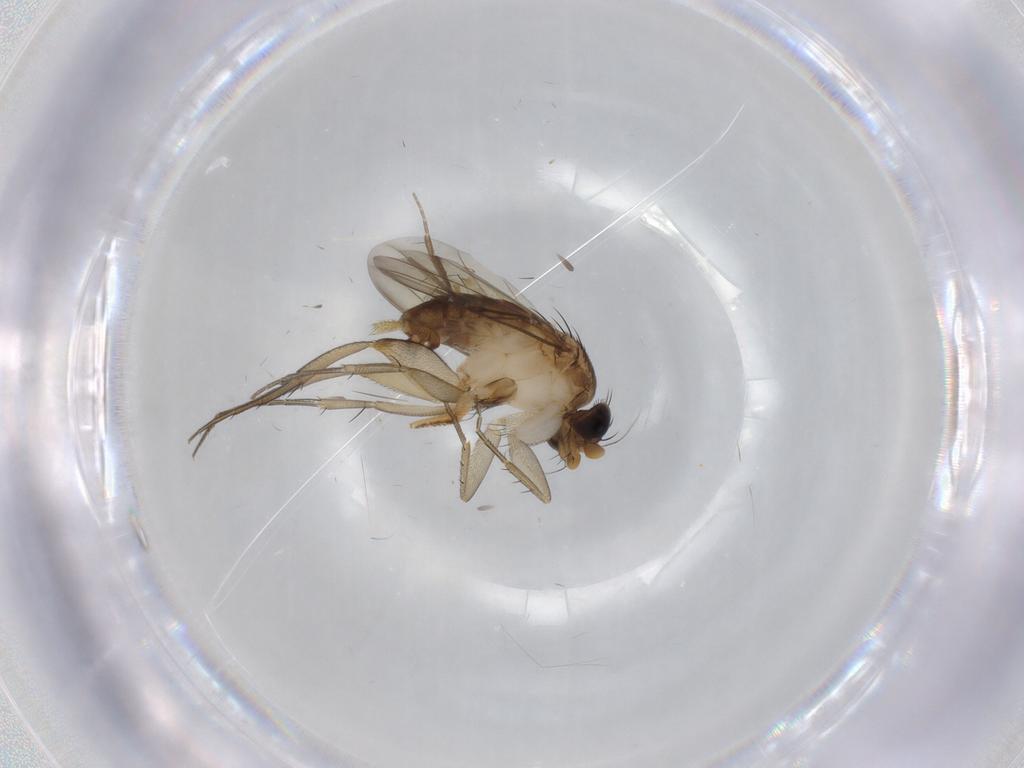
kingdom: Animalia
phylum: Arthropoda
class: Insecta
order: Diptera
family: Cecidomyiidae
